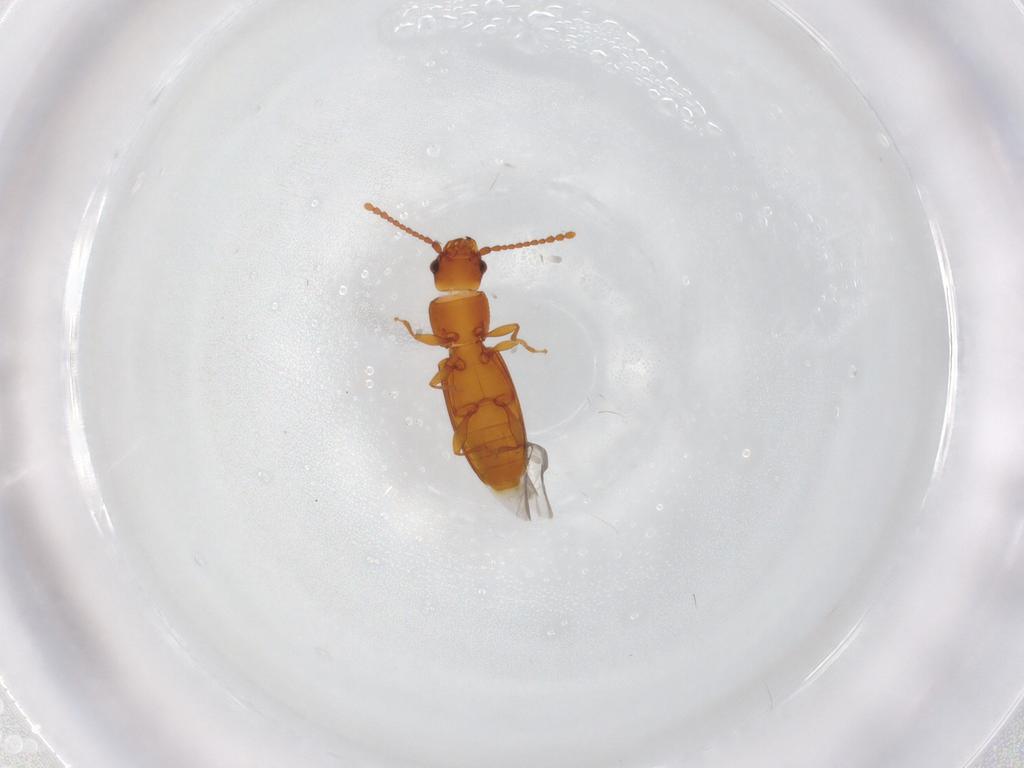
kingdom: Animalia
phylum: Arthropoda
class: Insecta
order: Coleoptera
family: Laemophloeidae
